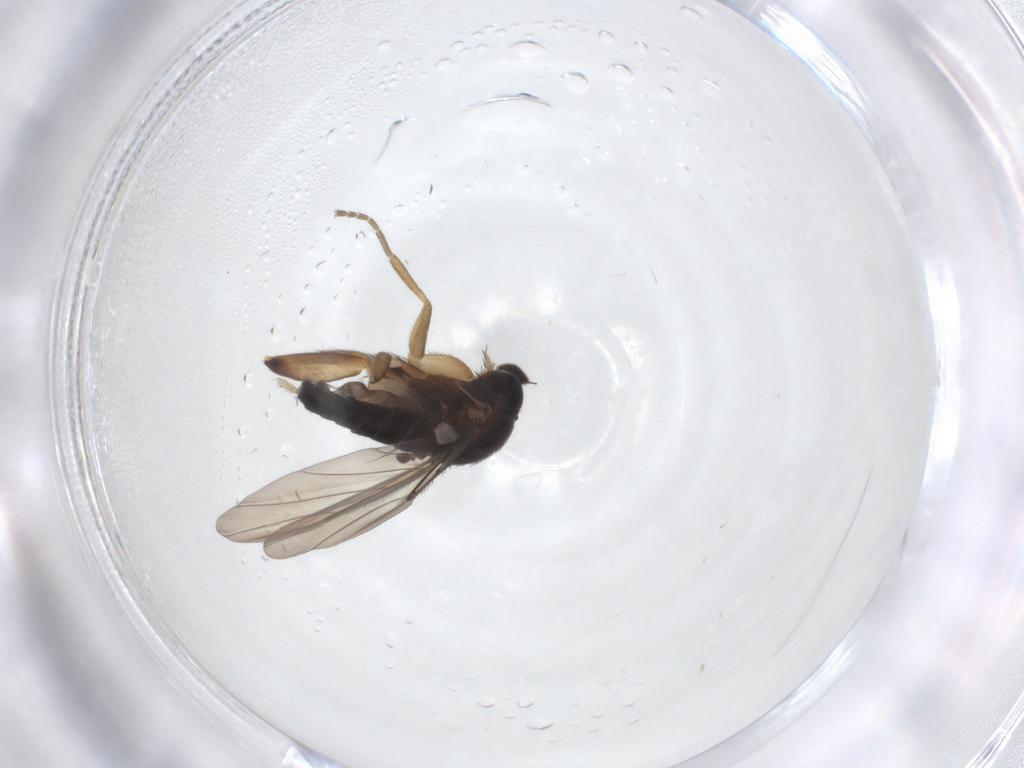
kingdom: Animalia
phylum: Arthropoda
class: Insecta
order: Diptera
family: Phoridae
